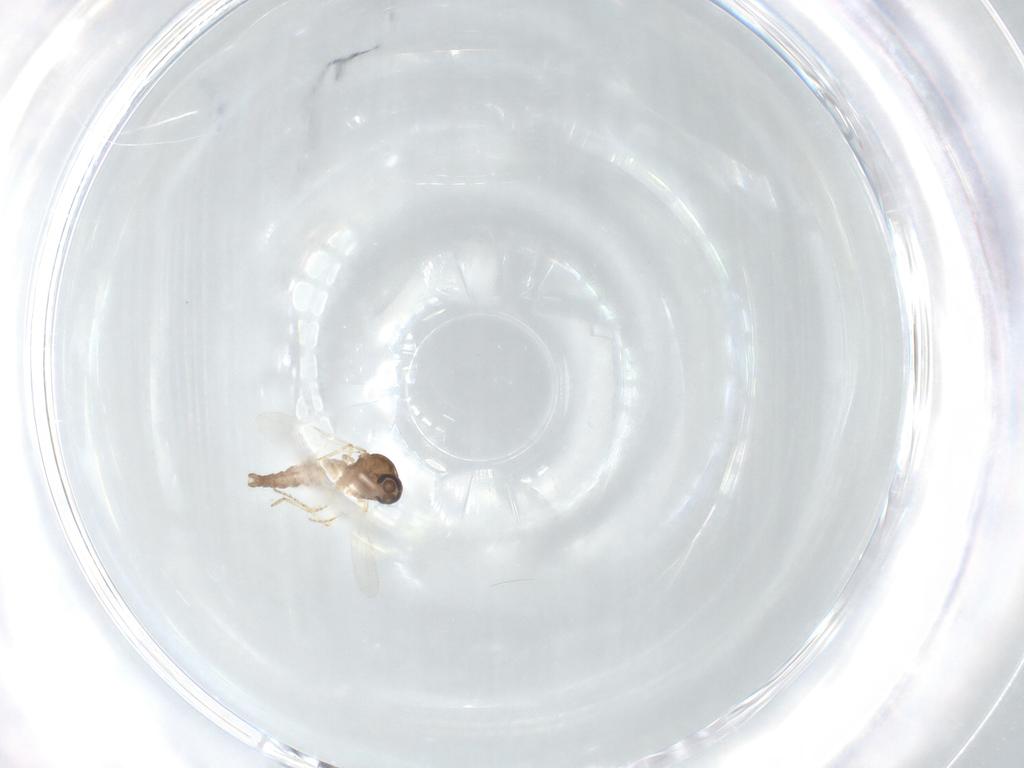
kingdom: Animalia
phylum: Arthropoda
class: Insecta
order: Diptera
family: Ceratopogonidae
